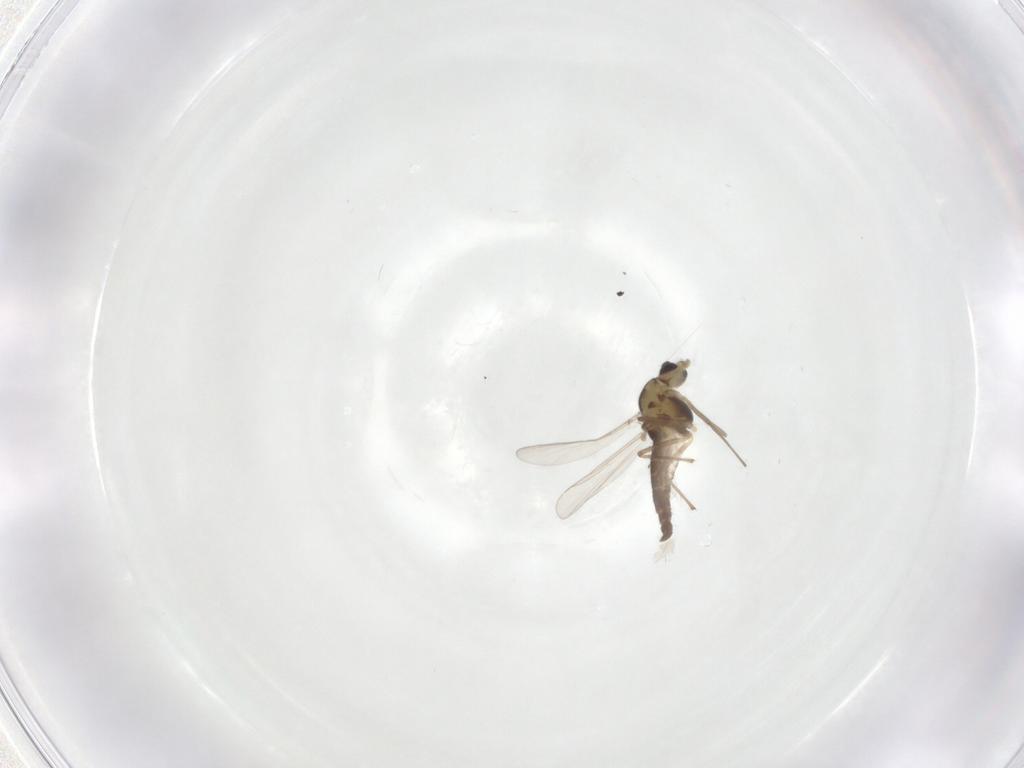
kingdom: Animalia
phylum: Arthropoda
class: Insecta
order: Diptera
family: Chironomidae
